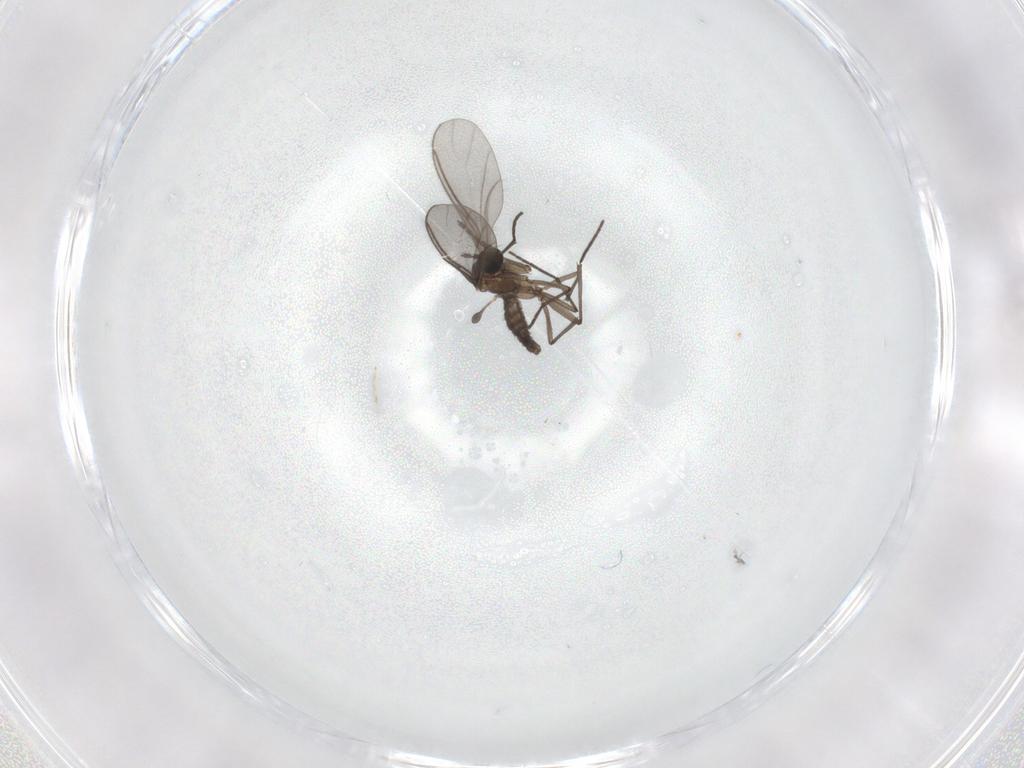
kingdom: Animalia
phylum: Arthropoda
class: Insecta
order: Diptera
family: Sciaridae
